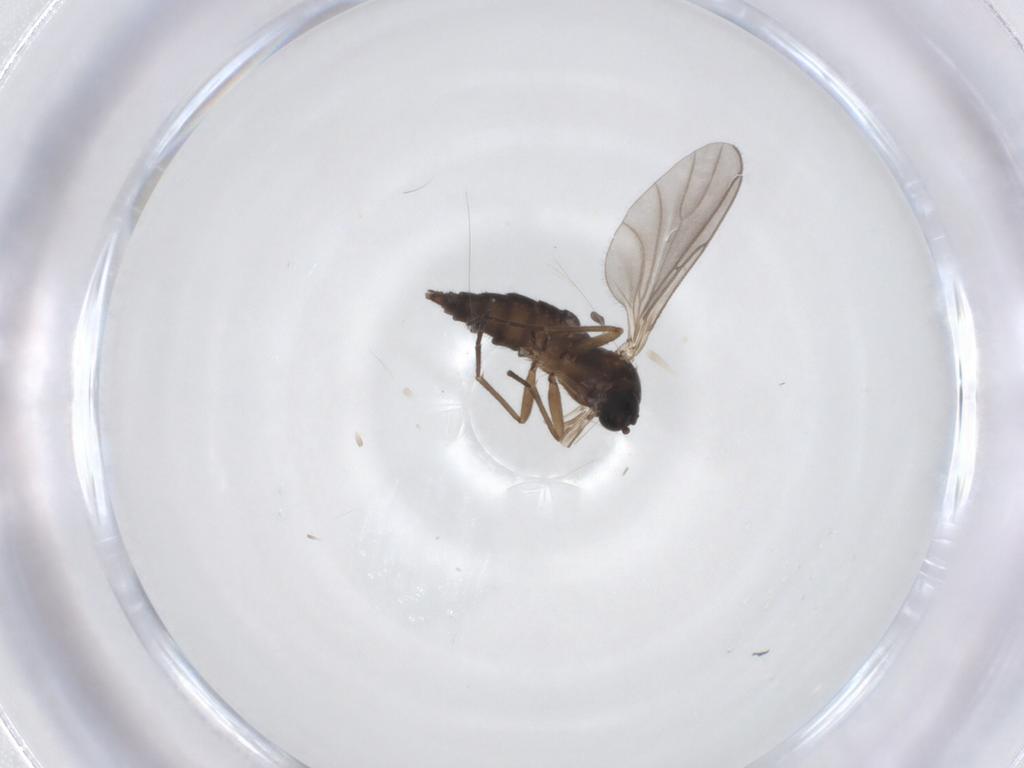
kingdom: Animalia
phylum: Arthropoda
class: Insecta
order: Diptera
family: Sciaridae
